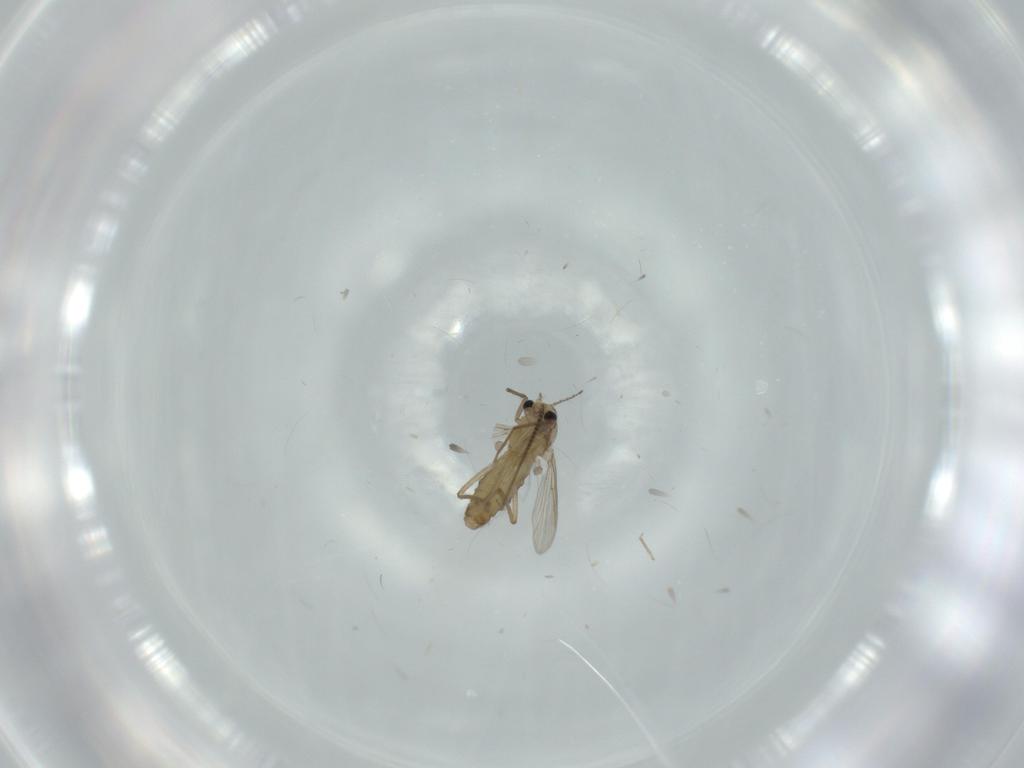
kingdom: Animalia
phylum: Arthropoda
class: Insecta
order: Diptera
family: Chironomidae
